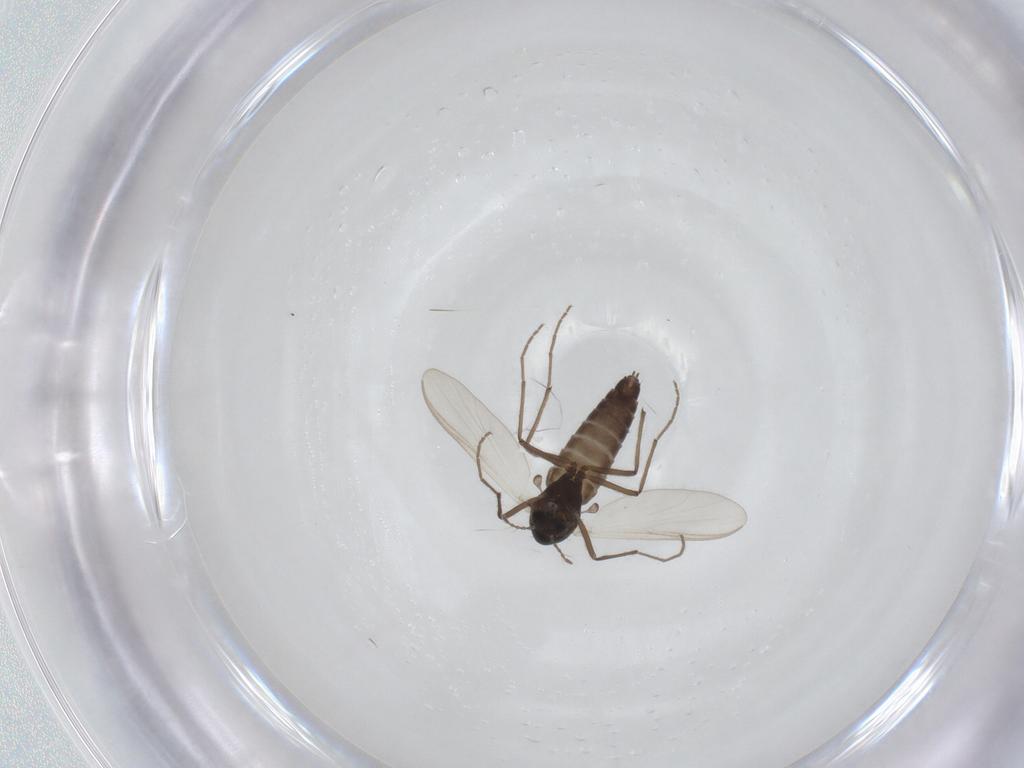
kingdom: Animalia
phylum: Arthropoda
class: Insecta
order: Diptera
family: Chironomidae
